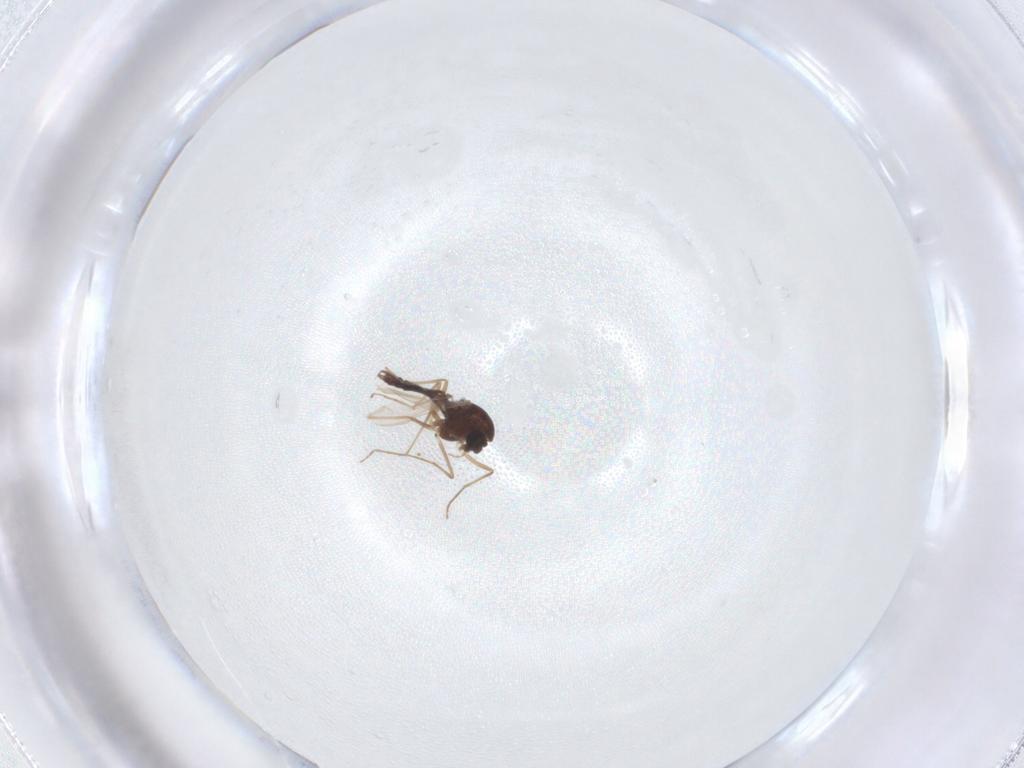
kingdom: Animalia
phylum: Arthropoda
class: Insecta
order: Diptera
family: Chironomidae
